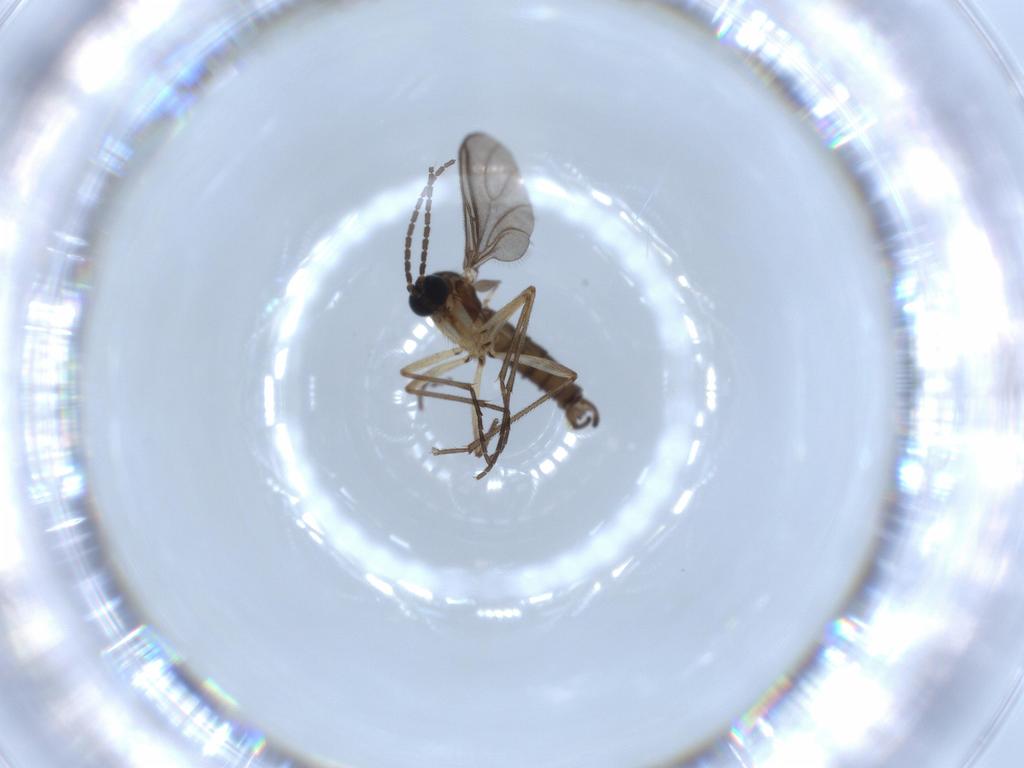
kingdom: Animalia
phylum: Arthropoda
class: Insecta
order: Diptera
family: Sciaridae
